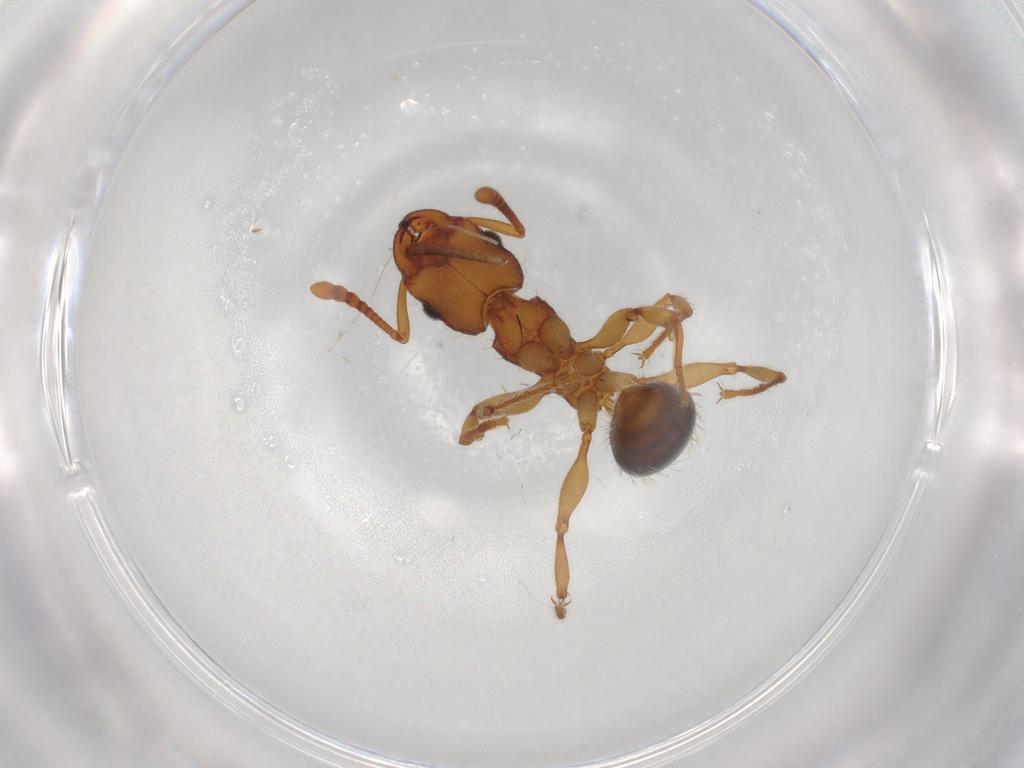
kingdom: Animalia
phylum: Arthropoda
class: Insecta
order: Hymenoptera
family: Formicidae
